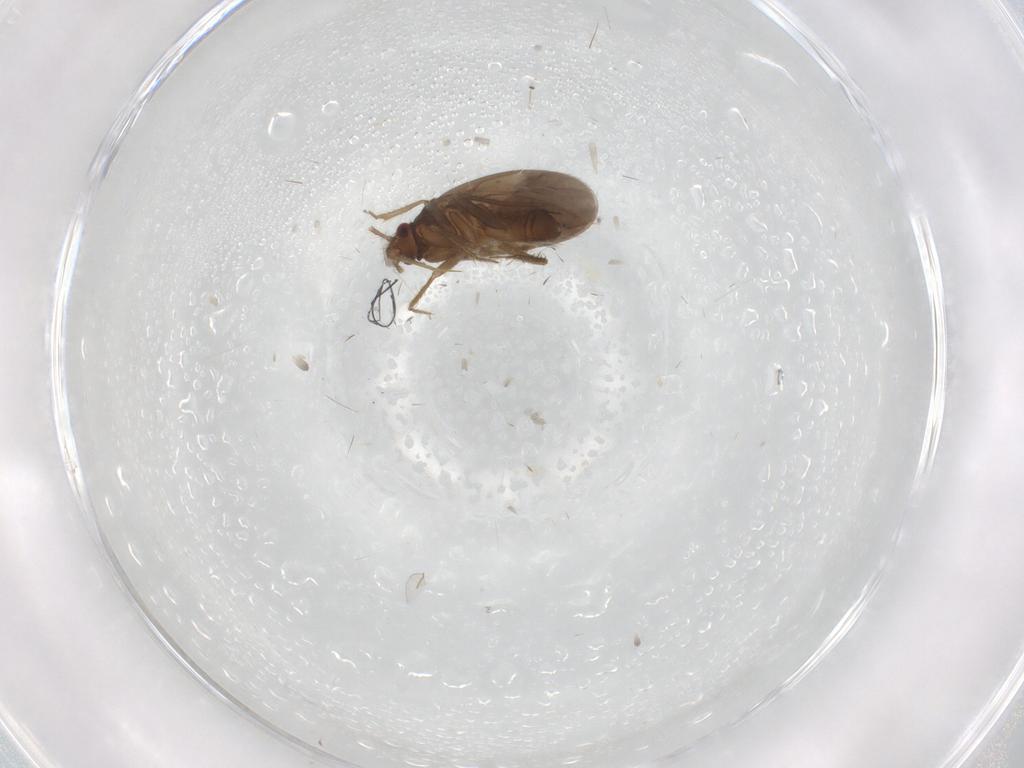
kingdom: Animalia
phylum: Arthropoda
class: Insecta
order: Hemiptera
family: Ceratocombidae
